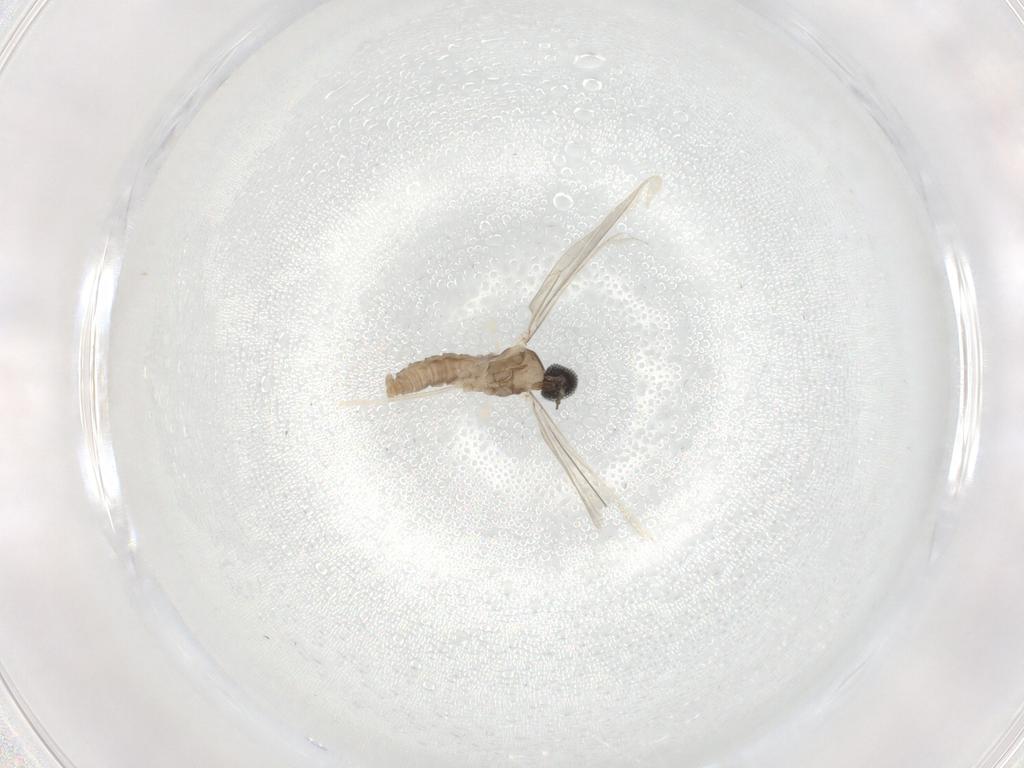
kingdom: Animalia
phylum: Arthropoda
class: Insecta
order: Diptera
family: Cecidomyiidae
